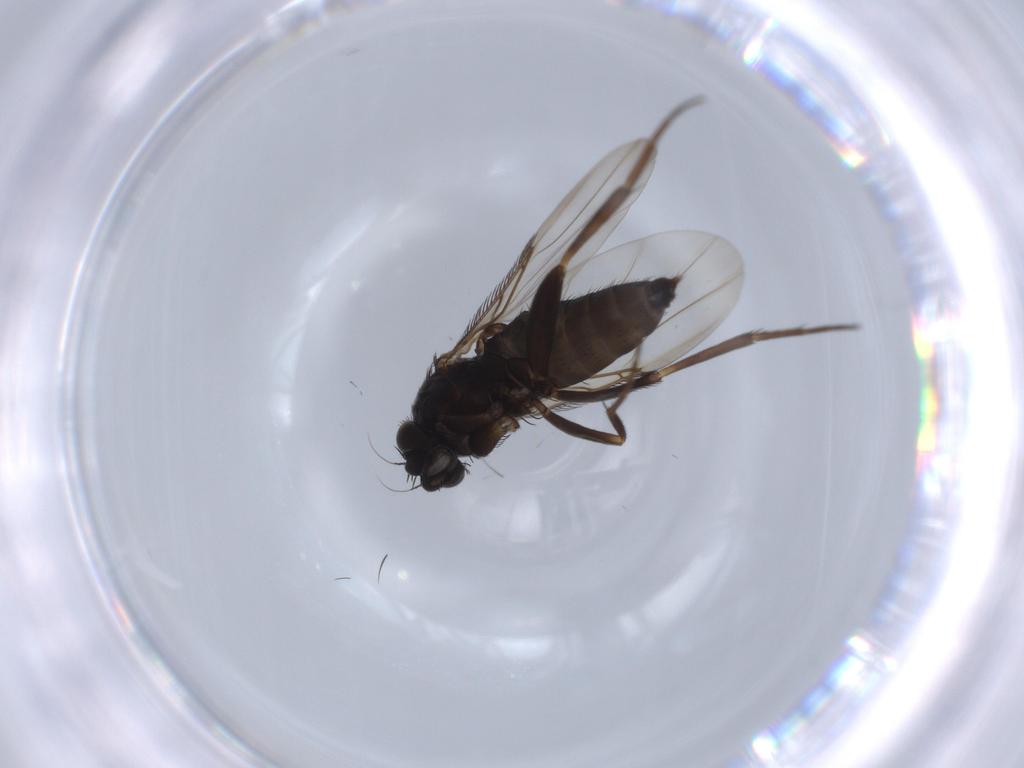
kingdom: Animalia
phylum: Arthropoda
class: Insecta
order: Diptera
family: Phoridae
